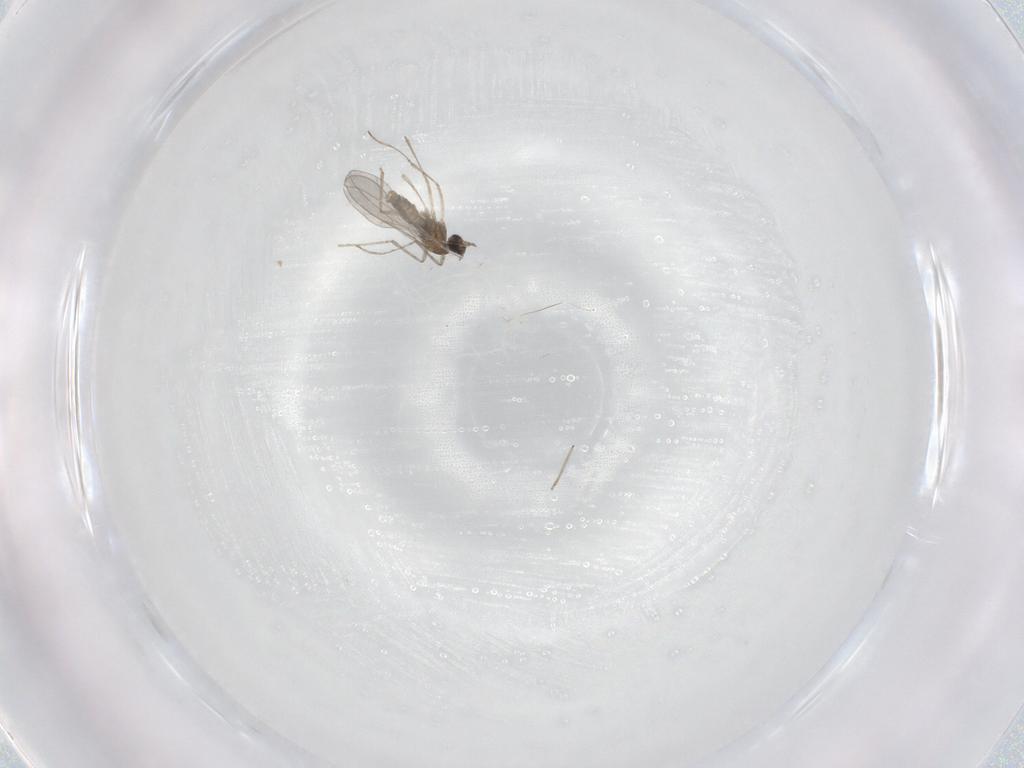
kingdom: Animalia
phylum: Arthropoda
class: Insecta
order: Diptera
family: Cecidomyiidae
